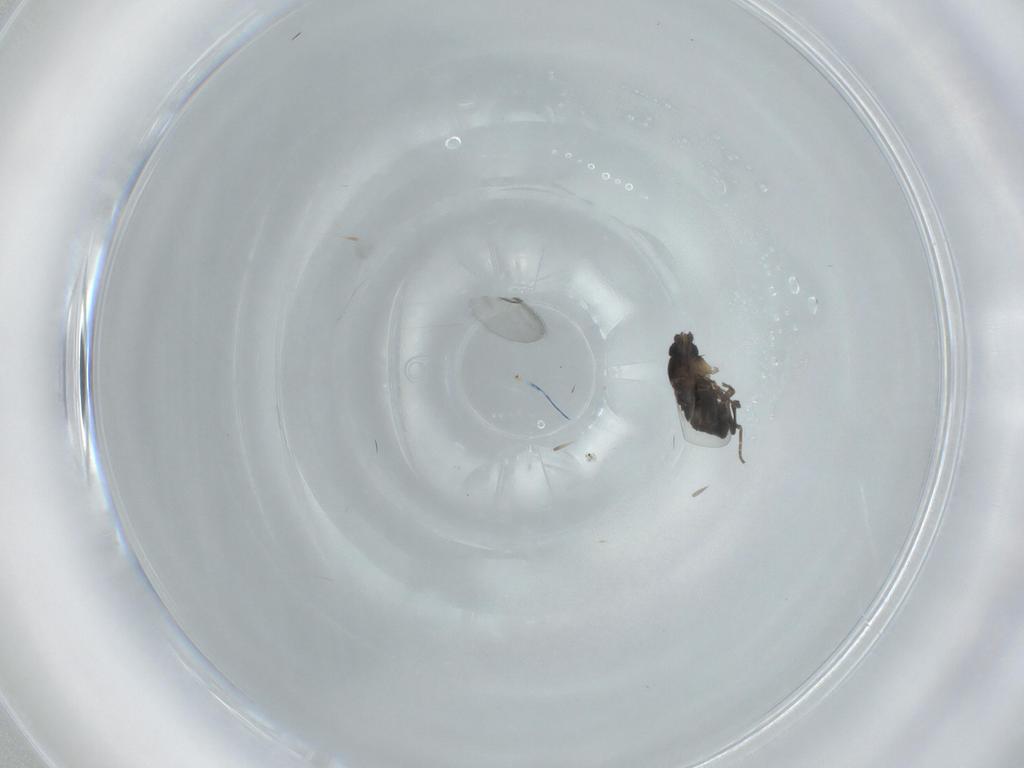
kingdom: Animalia
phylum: Arthropoda
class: Insecta
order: Diptera
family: Phoridae
